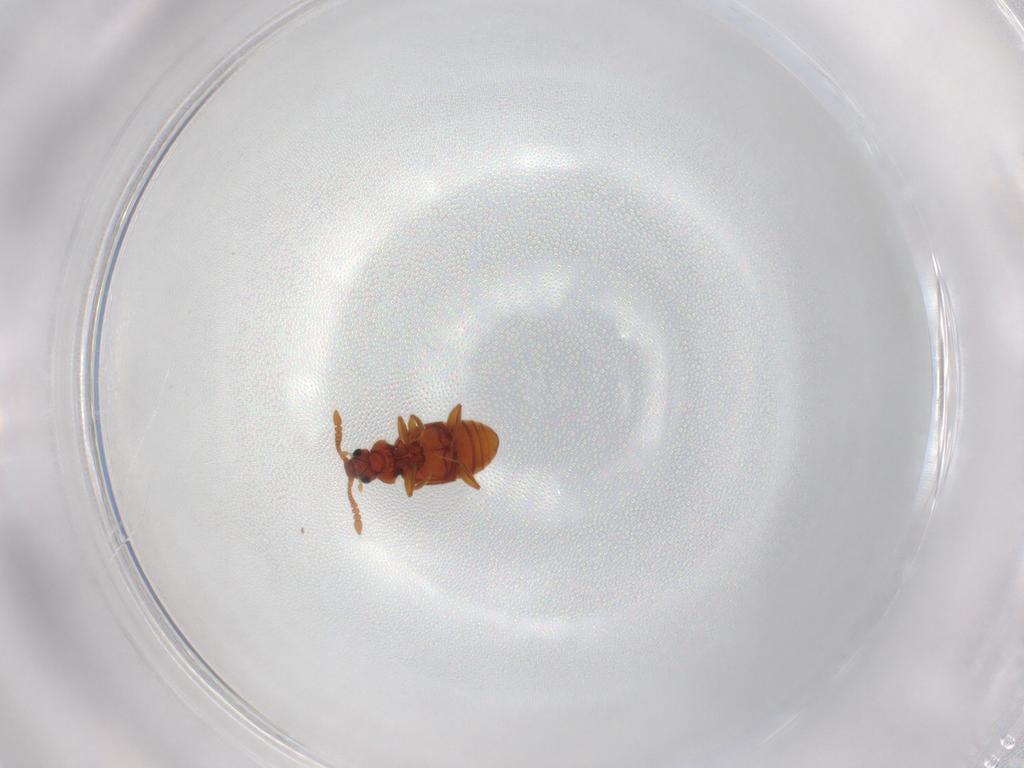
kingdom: Animalia
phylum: Arthropoda
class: Insecta
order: Coleoptera
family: Staphylinidae
